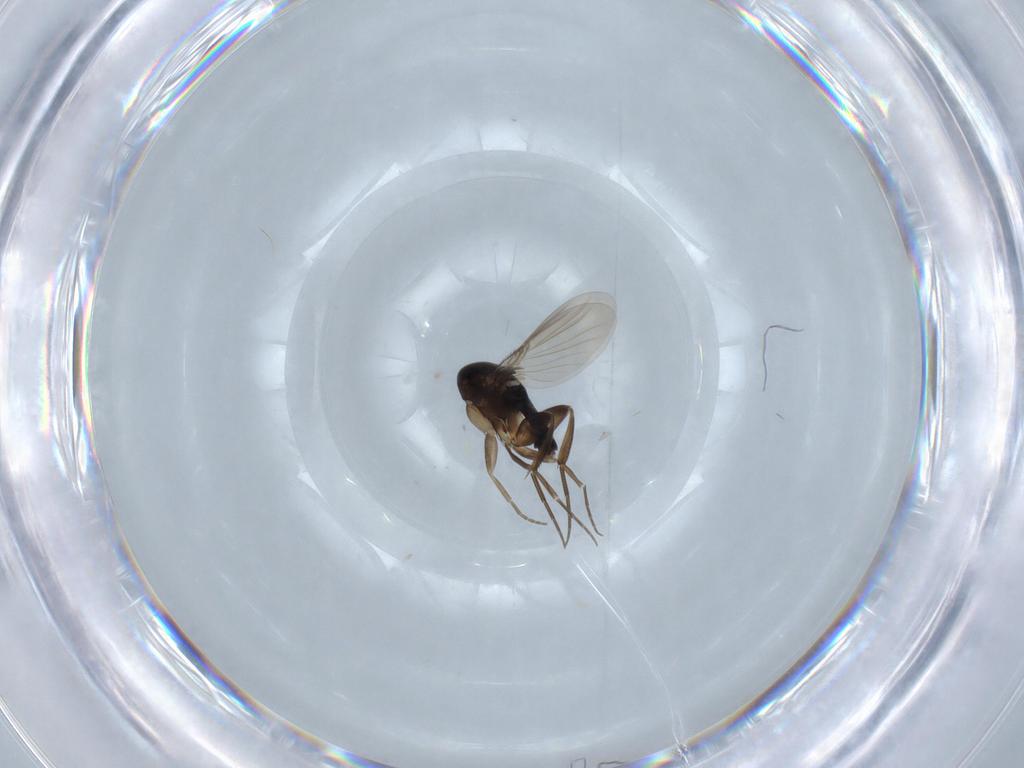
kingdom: Animalia
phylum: Arthropoda
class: Insecta
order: Diptera
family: Phoridae
